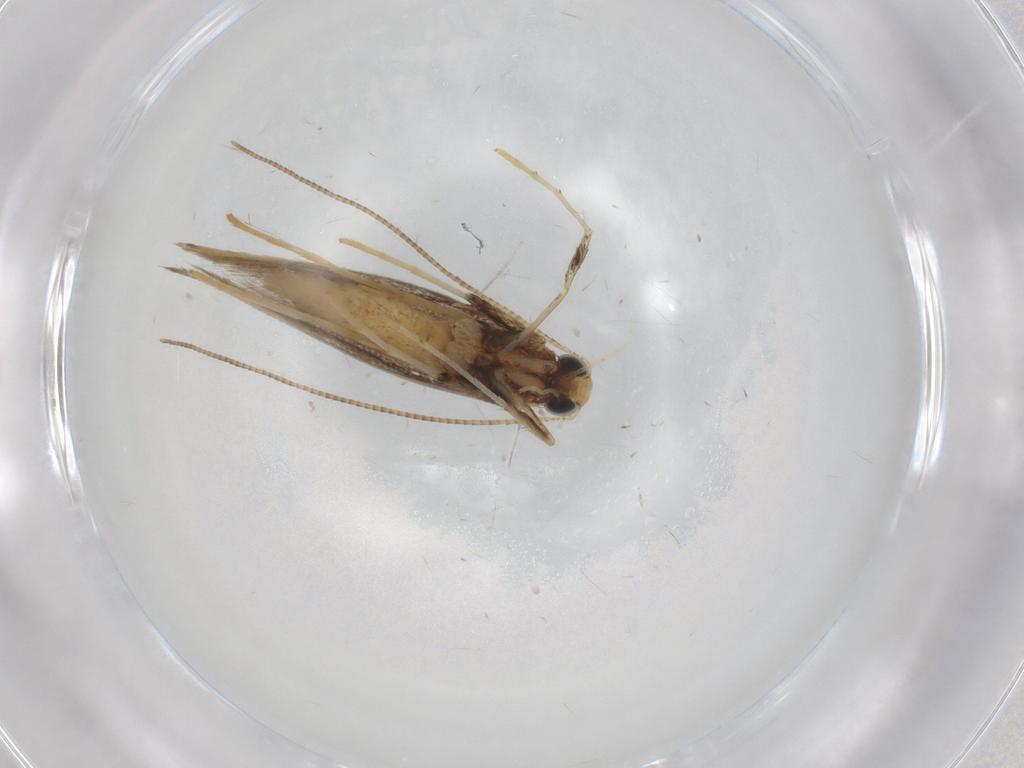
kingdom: Animalia
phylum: Arthropoda
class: Insecta
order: Lepidoptera
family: Gracillariidae
